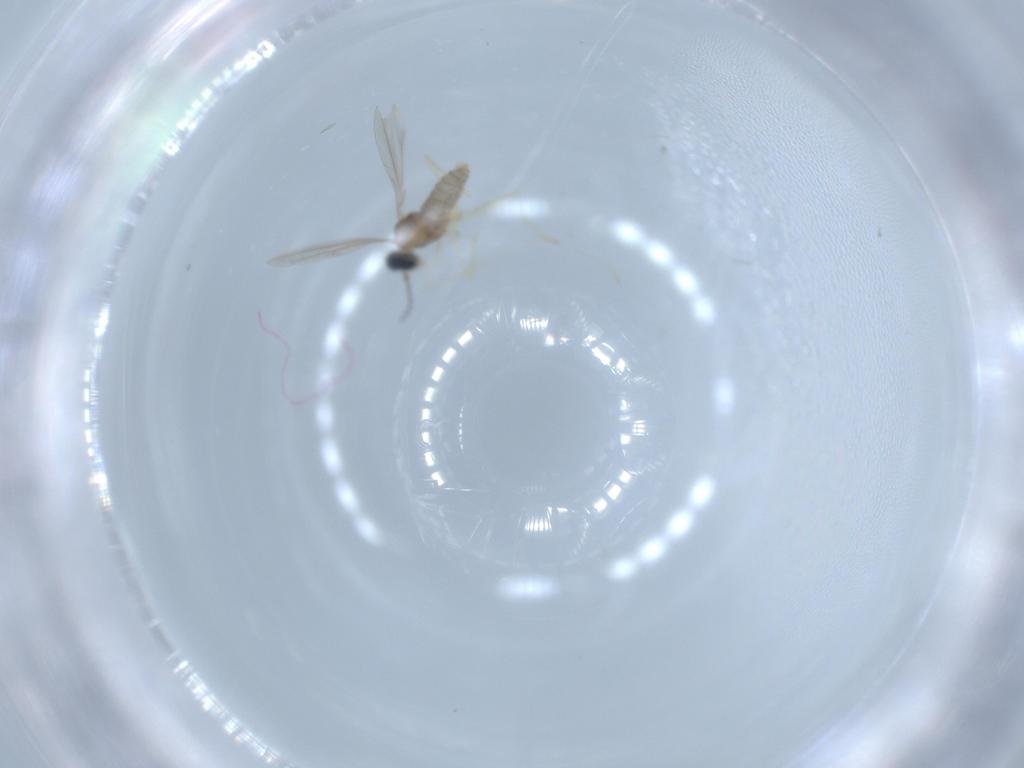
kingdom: Animalia
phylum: Arthropoda
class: Insecta
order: Diptera
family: Cecidomyiidae
